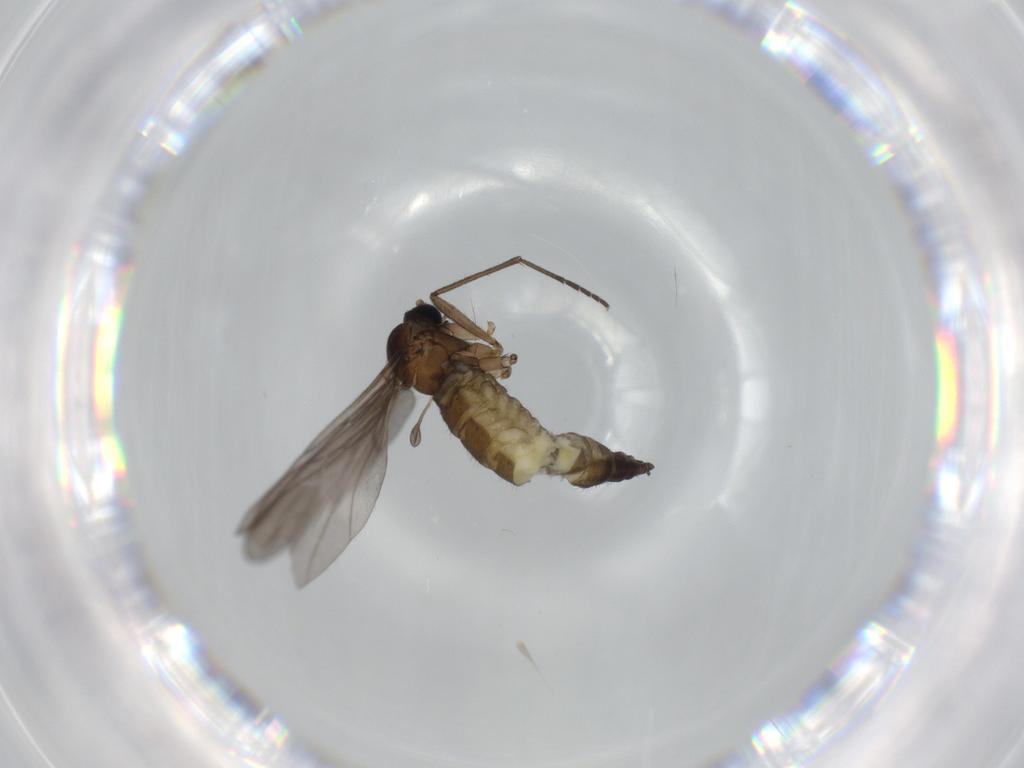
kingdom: Animalia
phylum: Arthropoda
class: Insecta
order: Diptera
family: Sciaridae
